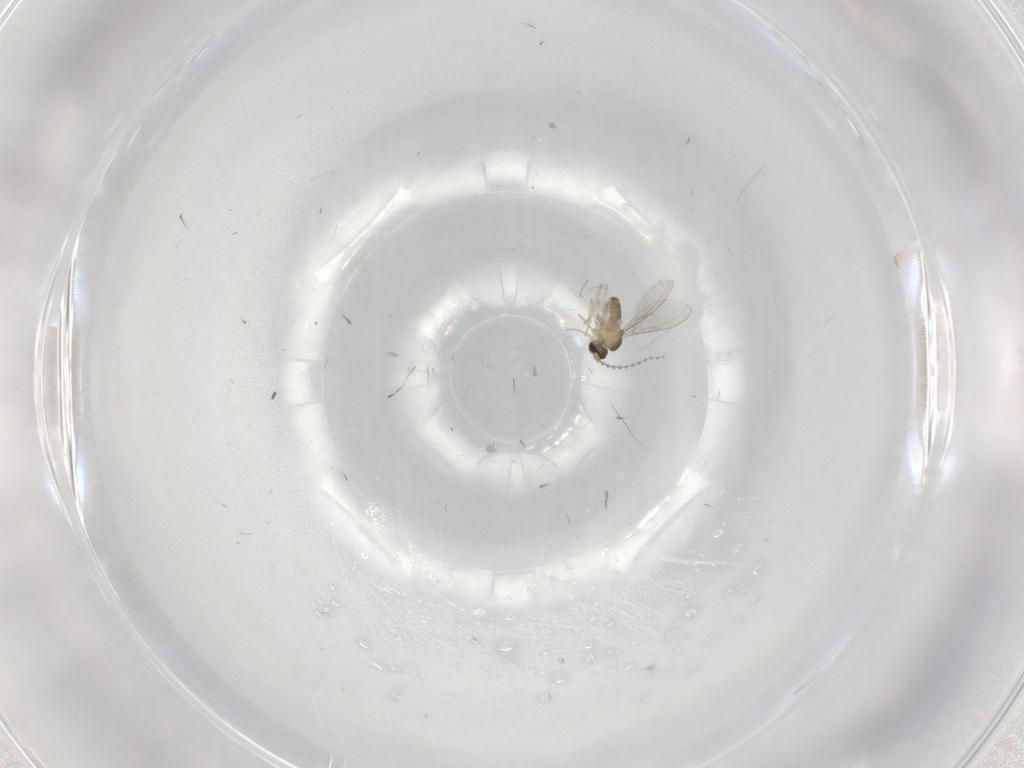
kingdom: Animalia
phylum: Arthropoda
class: Insecta
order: Diptera
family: Cecidomyiidae
